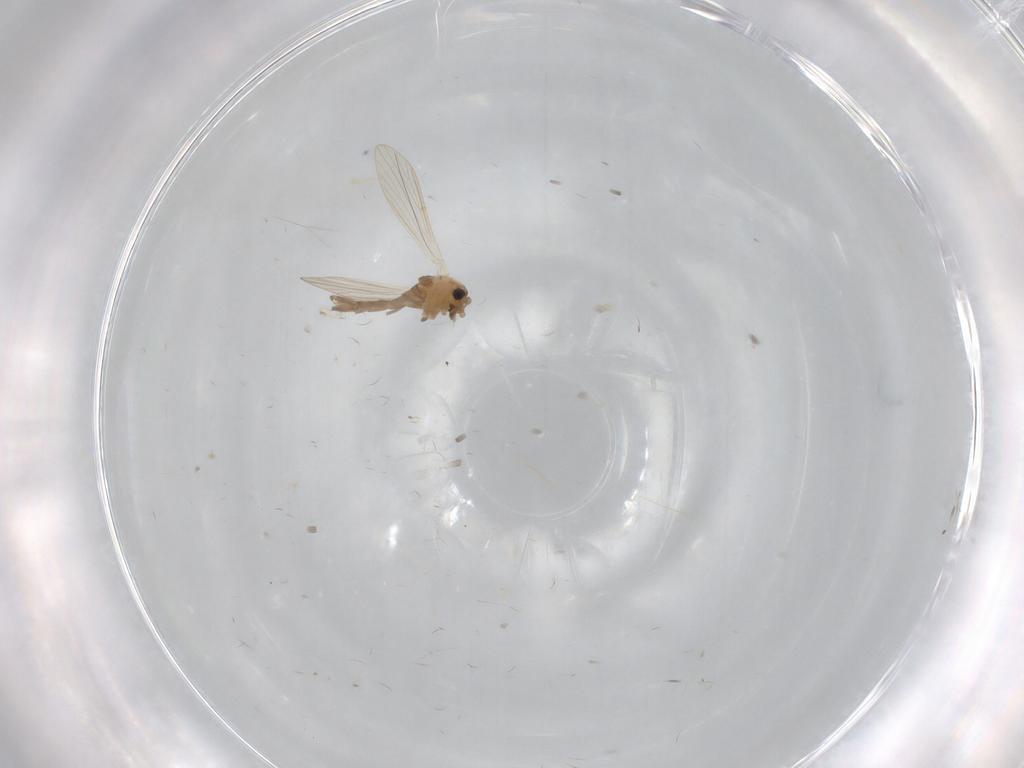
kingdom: Animalia
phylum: Arthropoda
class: Insecta
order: Diptera
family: Psychodidae
